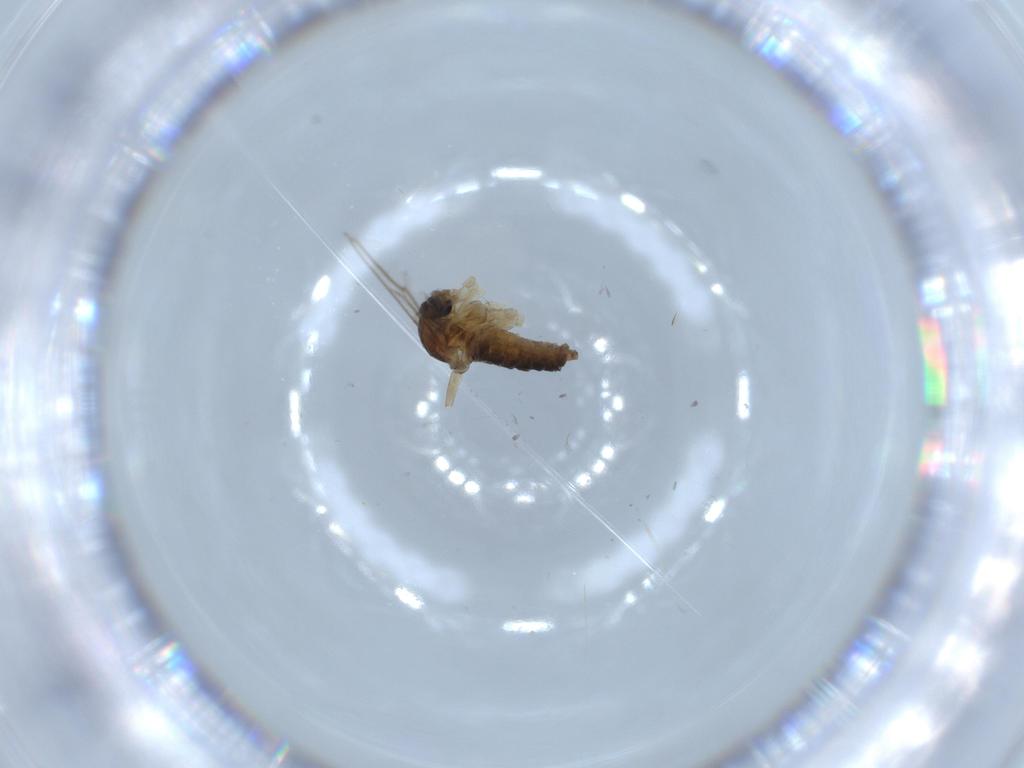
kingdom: Animalia
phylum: Arthropoda
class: Insecta
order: Diptera
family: Cecidomyiidae
